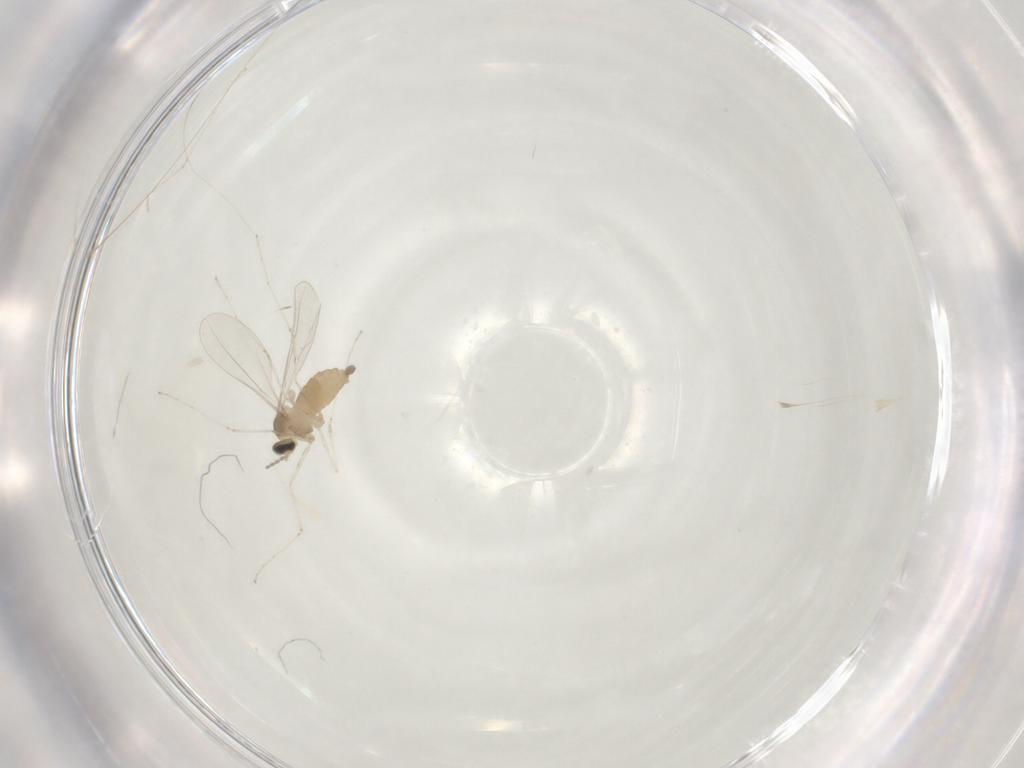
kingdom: Animalia
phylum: Arthropoda
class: Insecta
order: Diptera
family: Cecidomyiidae
